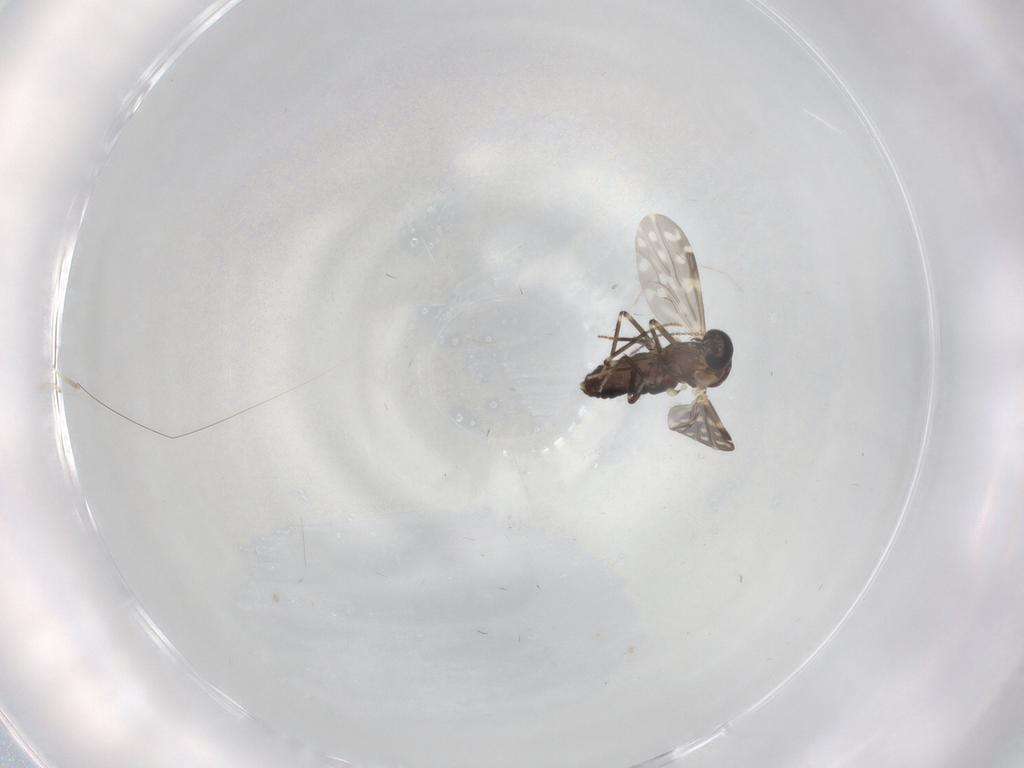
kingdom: Animalia
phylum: Arthropoda
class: Insecta
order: Diptera
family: Ceratopogonidae
